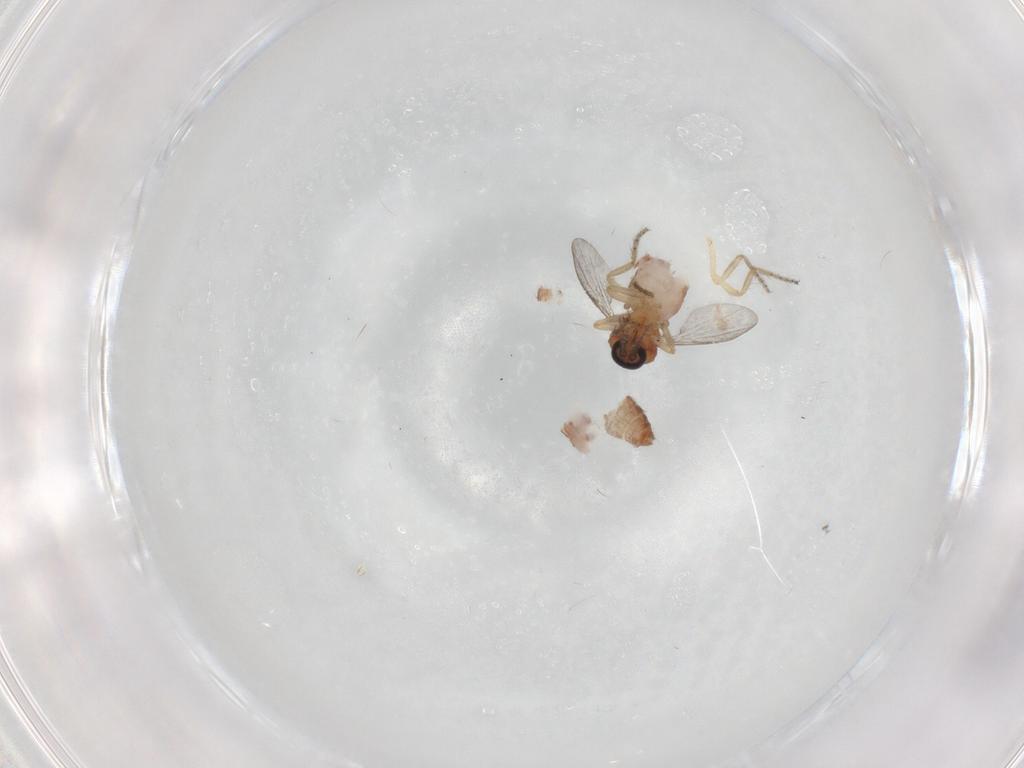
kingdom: Animalia
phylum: Arthropoda
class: Insecta
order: Diptera
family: Ceratopogonidae
